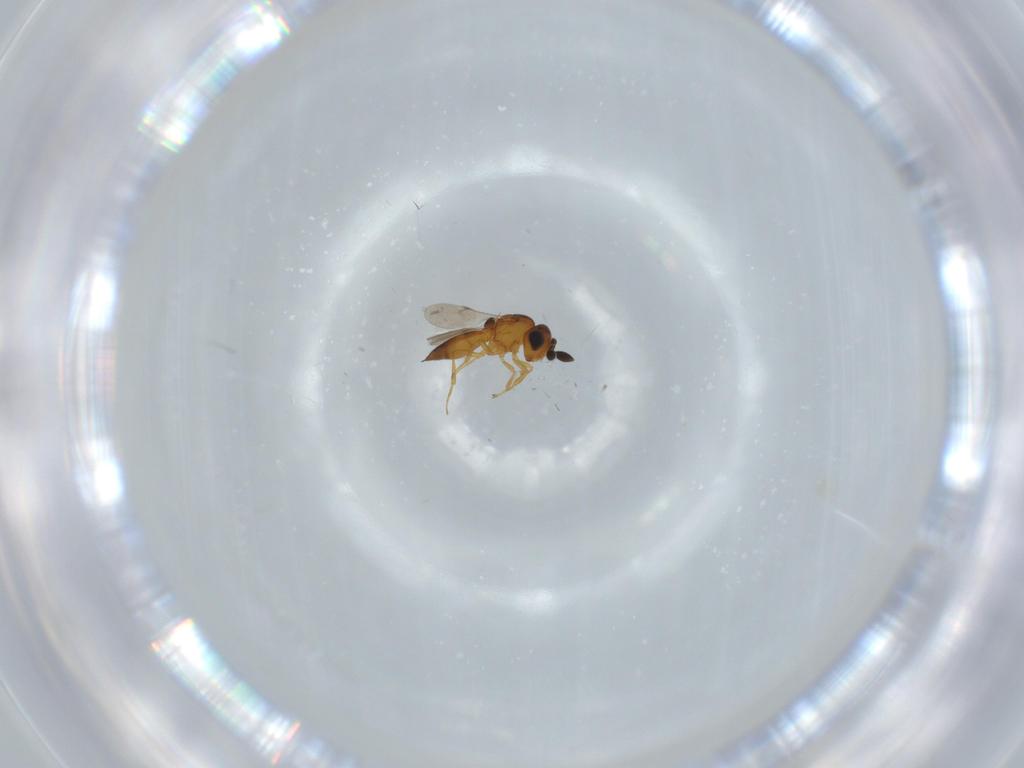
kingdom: Animalia
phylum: Arthropoda
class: Insecta
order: Hymenoptera
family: Scelionidae
